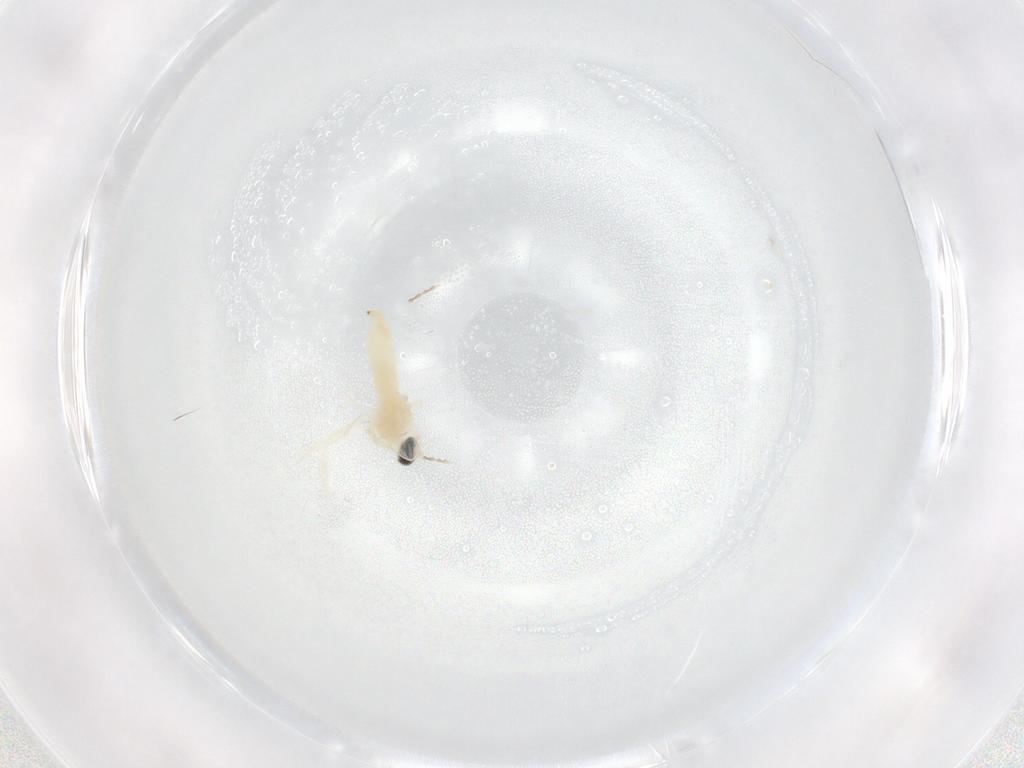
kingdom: Animalia
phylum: Arthropoda
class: Insecta
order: Diptera
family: Cecidomyiidae
